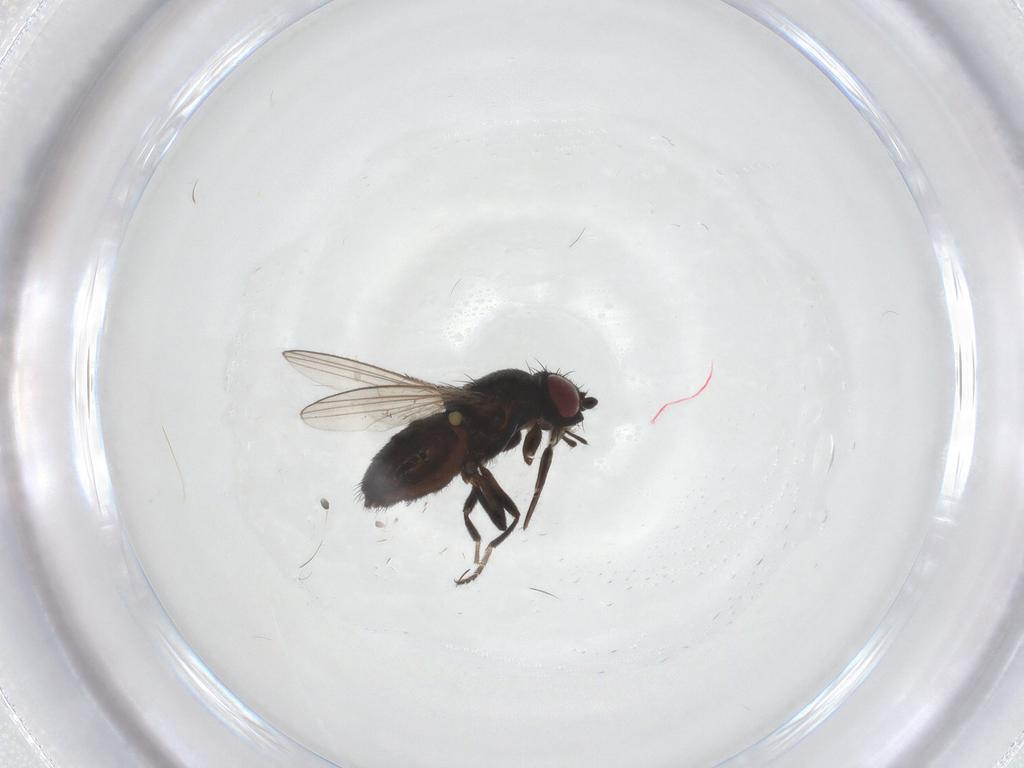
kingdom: Animalia
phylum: Arthropoda
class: Insecta
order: Diptera
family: Milichiidae
